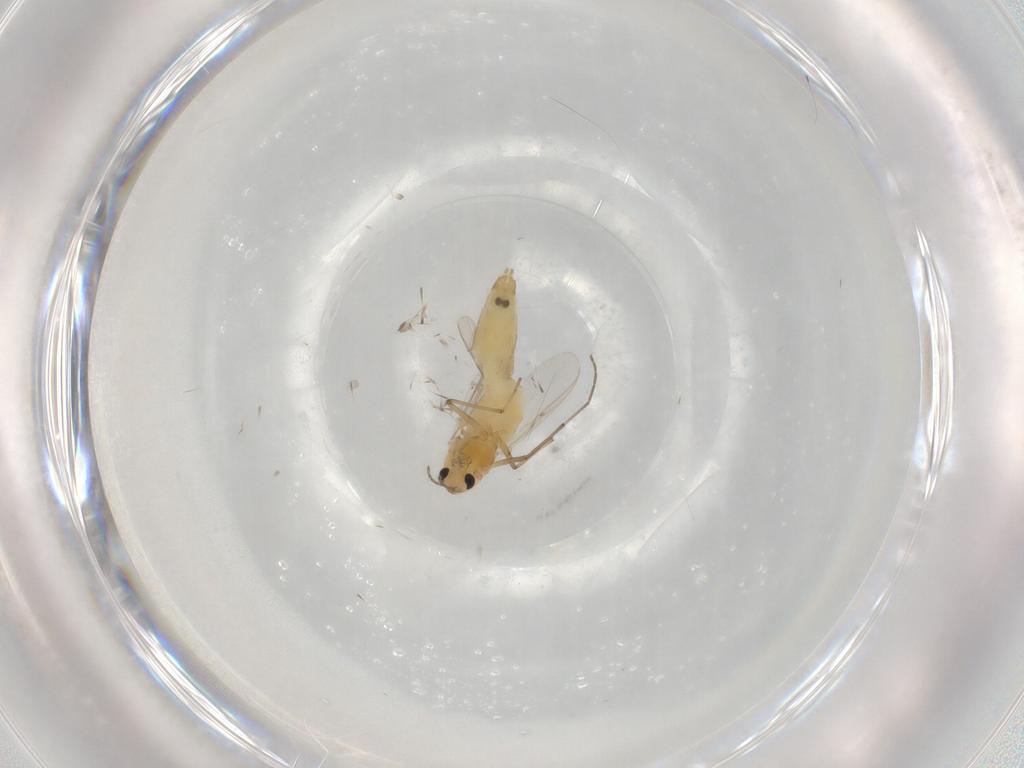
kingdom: Animalia
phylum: Arthropoda
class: Insecta
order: Diptera
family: Chironomidae
